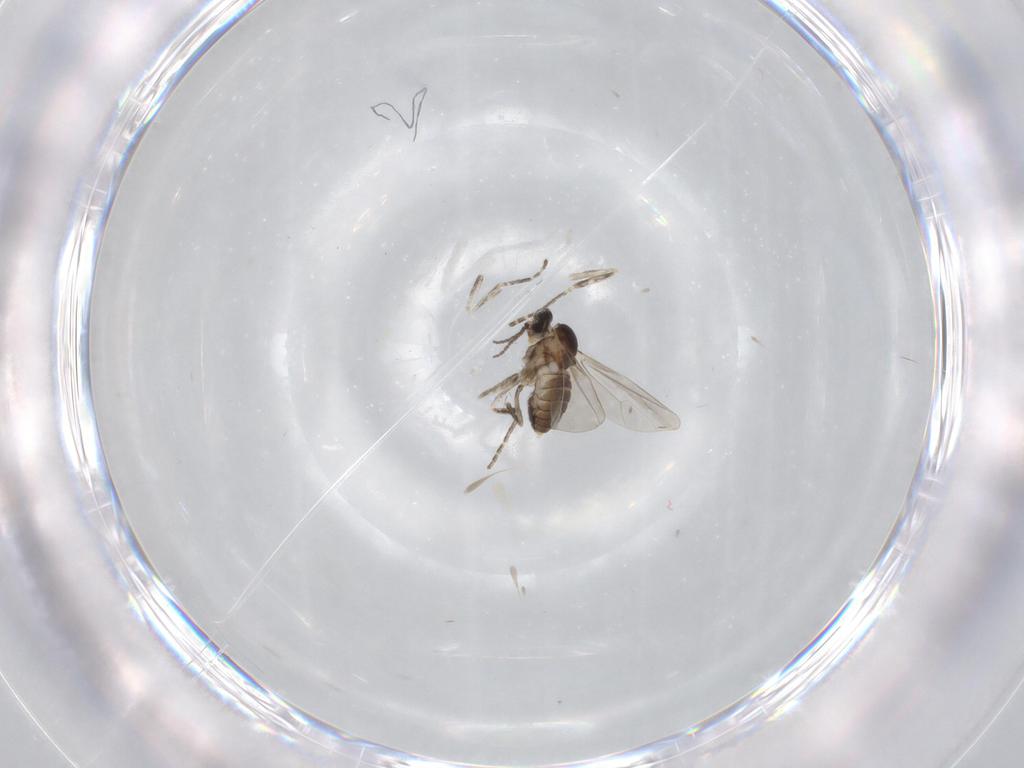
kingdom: Animalia
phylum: Arthropoda
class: Insecta
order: Diptera
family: Cecidomyiidae
